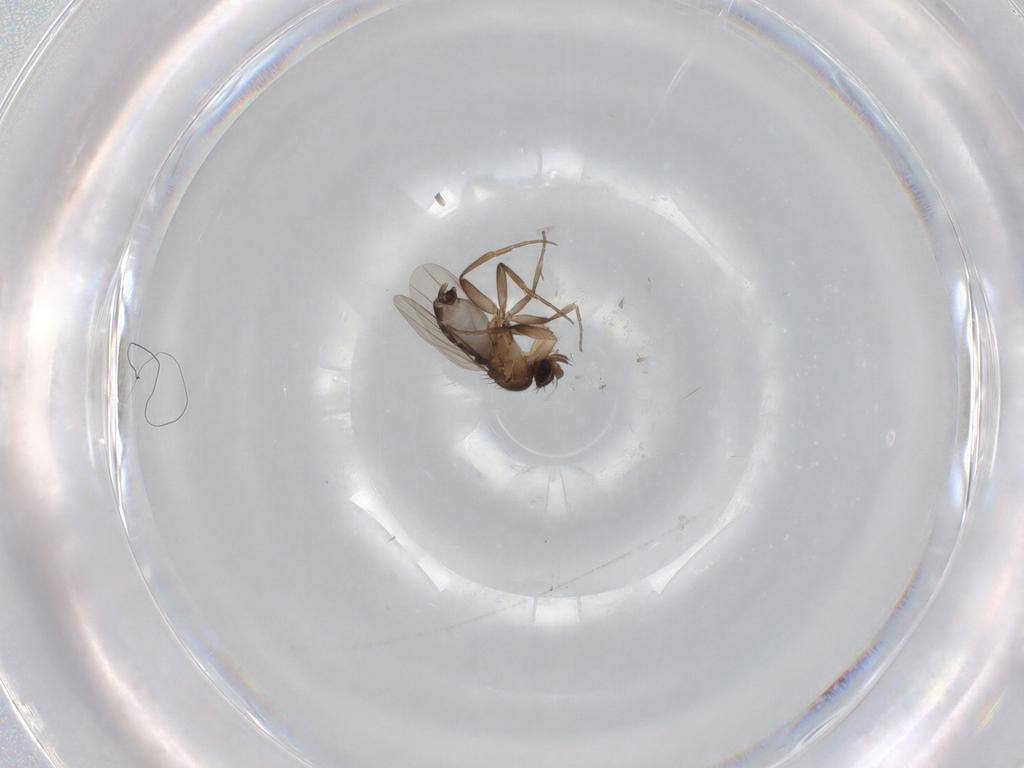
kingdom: Animalia
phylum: Arthropoda
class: Insecta
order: Diptera
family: Phoridae
